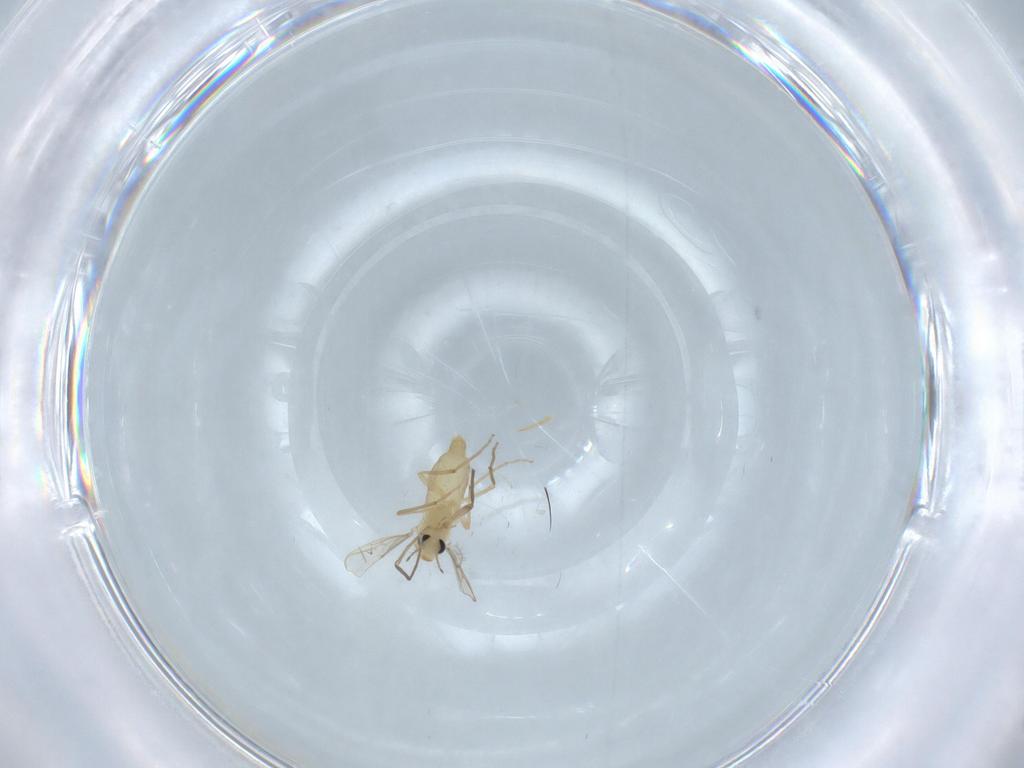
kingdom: Animalia
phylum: Arthropoda
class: Insecta
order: Diptera
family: Chironomidae
